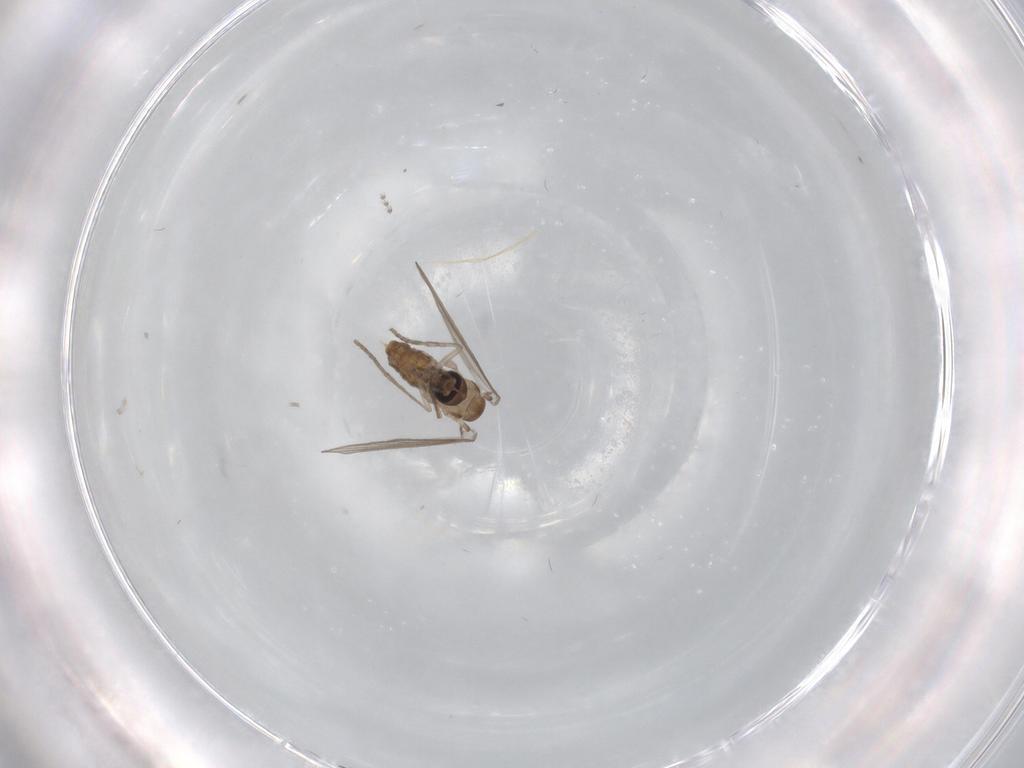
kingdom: Animalia
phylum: Arthropoda
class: Insecta
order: Diptera
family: Psychodidae
